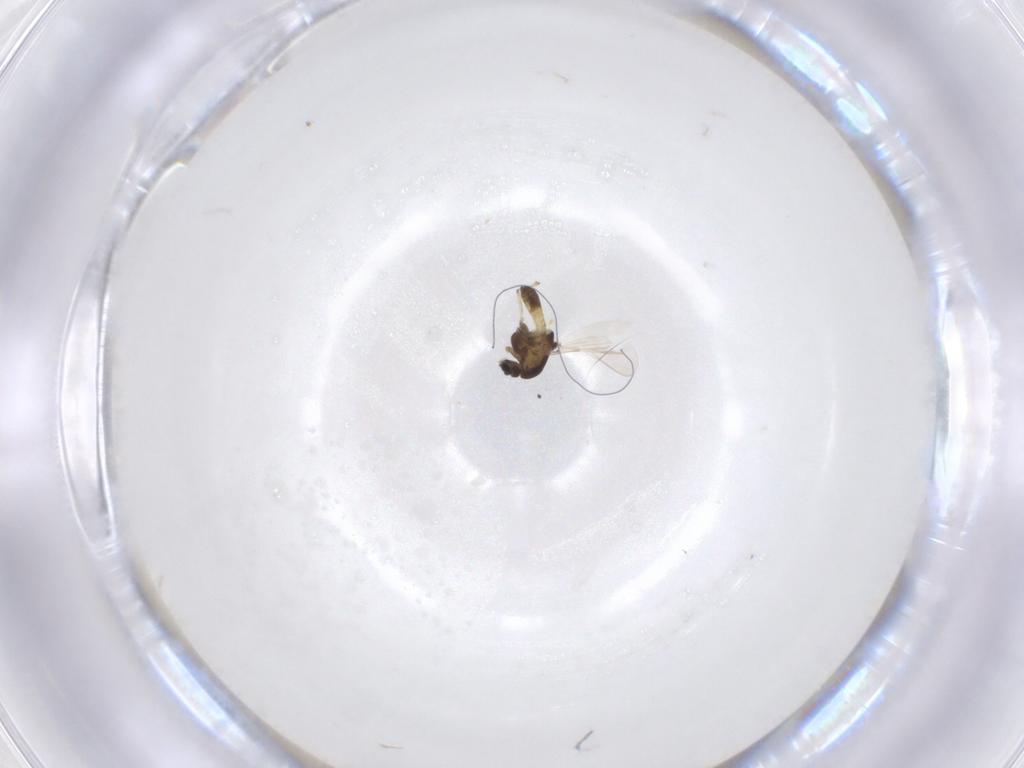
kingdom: Animalia
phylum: Arthropoda
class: Insecta
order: Diptera
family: Chironomidae
